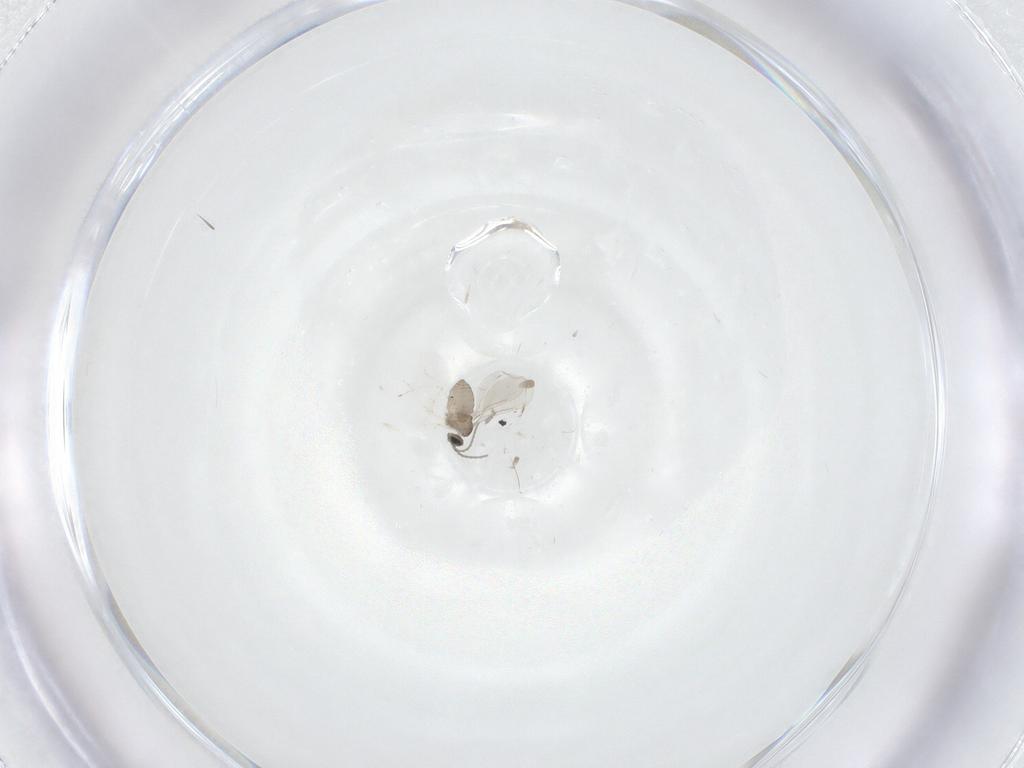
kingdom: Animalia
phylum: Arthropoda
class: Insecta
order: Diptera
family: Cecidomyiidae
